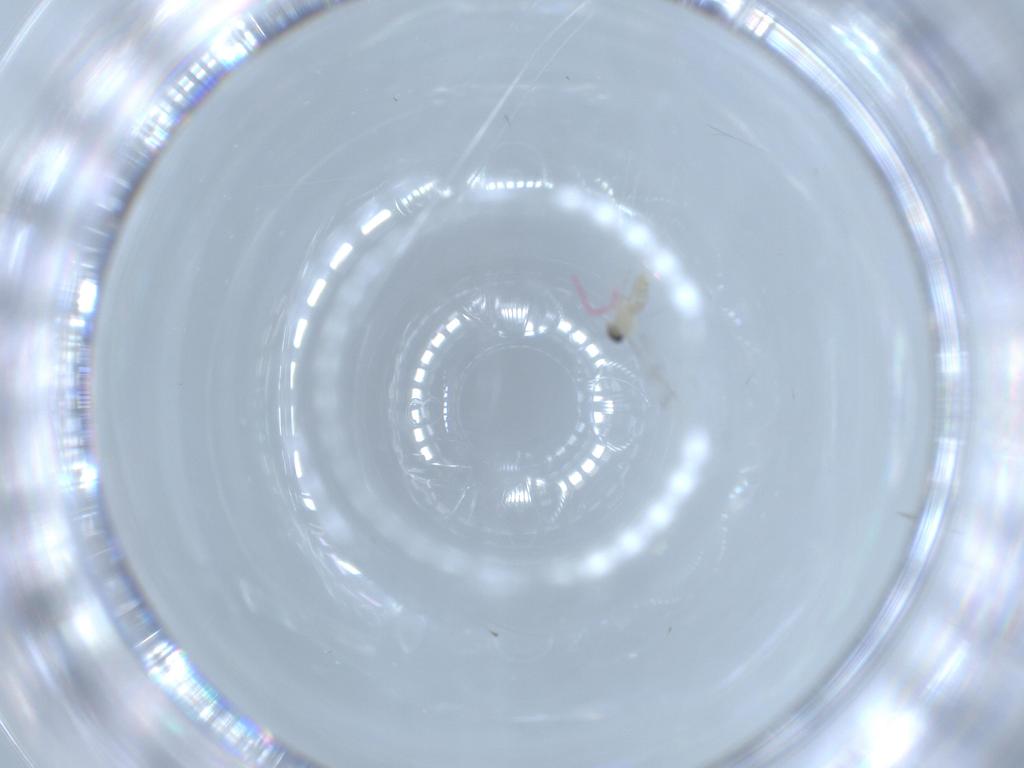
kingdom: Animalia
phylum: Arthropoda
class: Insecta
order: Diptera
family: Cecidomyiidae
